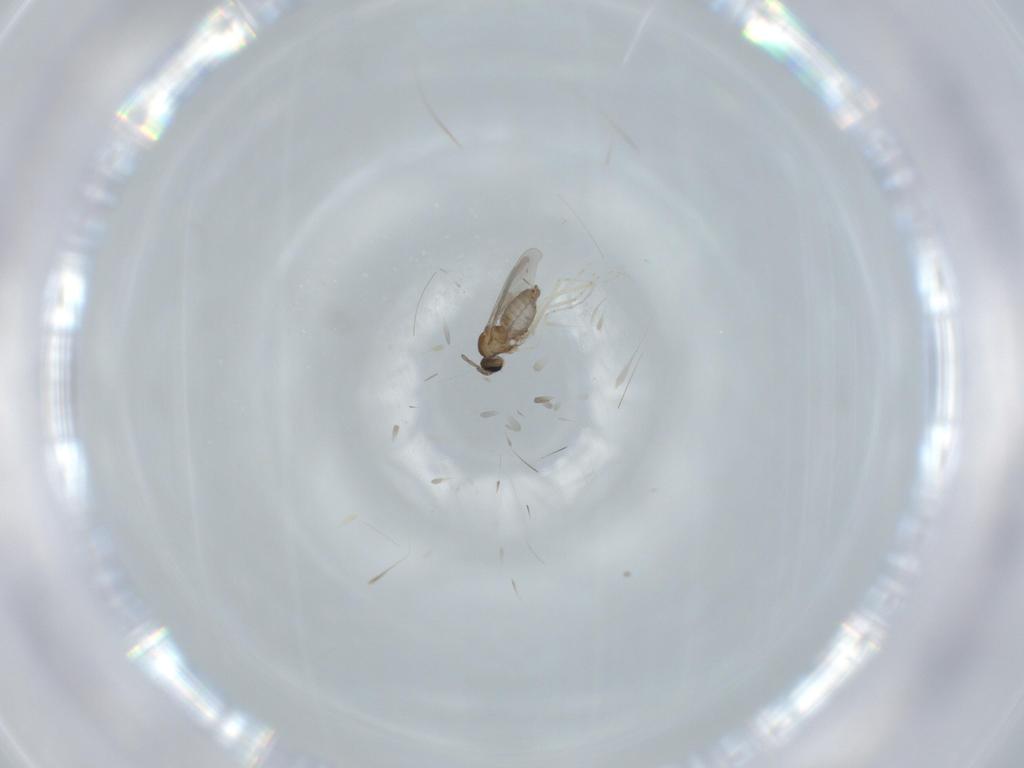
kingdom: Animalia
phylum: Arthropoda
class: Insecta
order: Diptera
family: Cecidomyiidae
